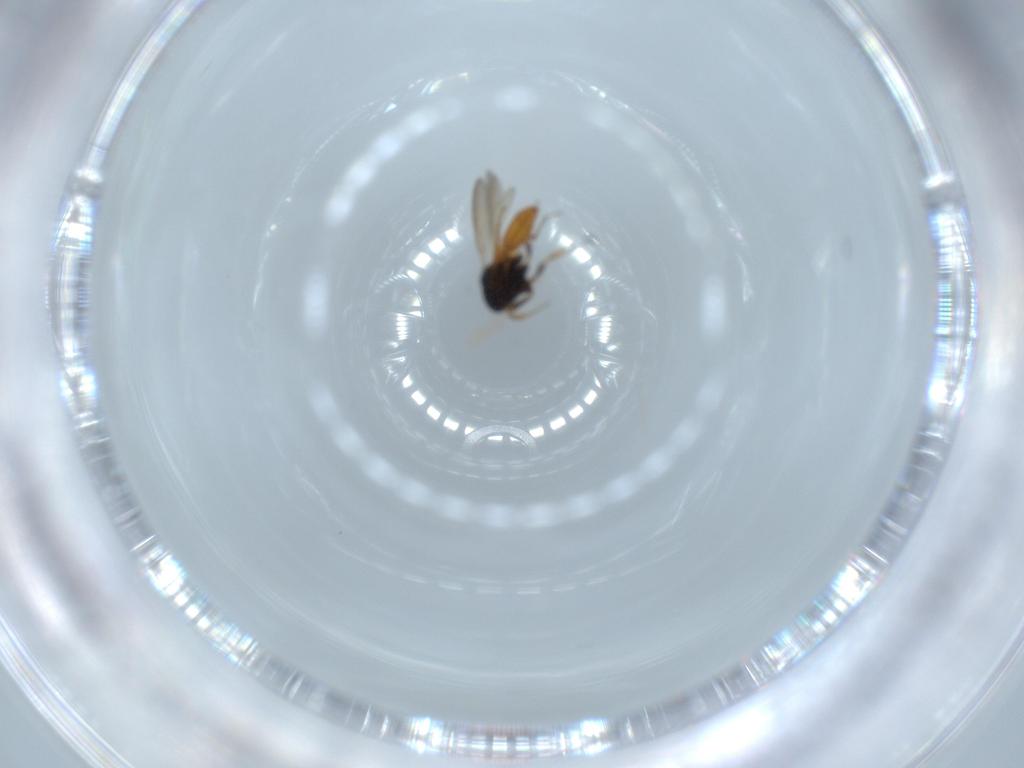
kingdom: Animalia
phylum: Arthropoda
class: Insecta
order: Hymenoptera
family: Scelionidae
